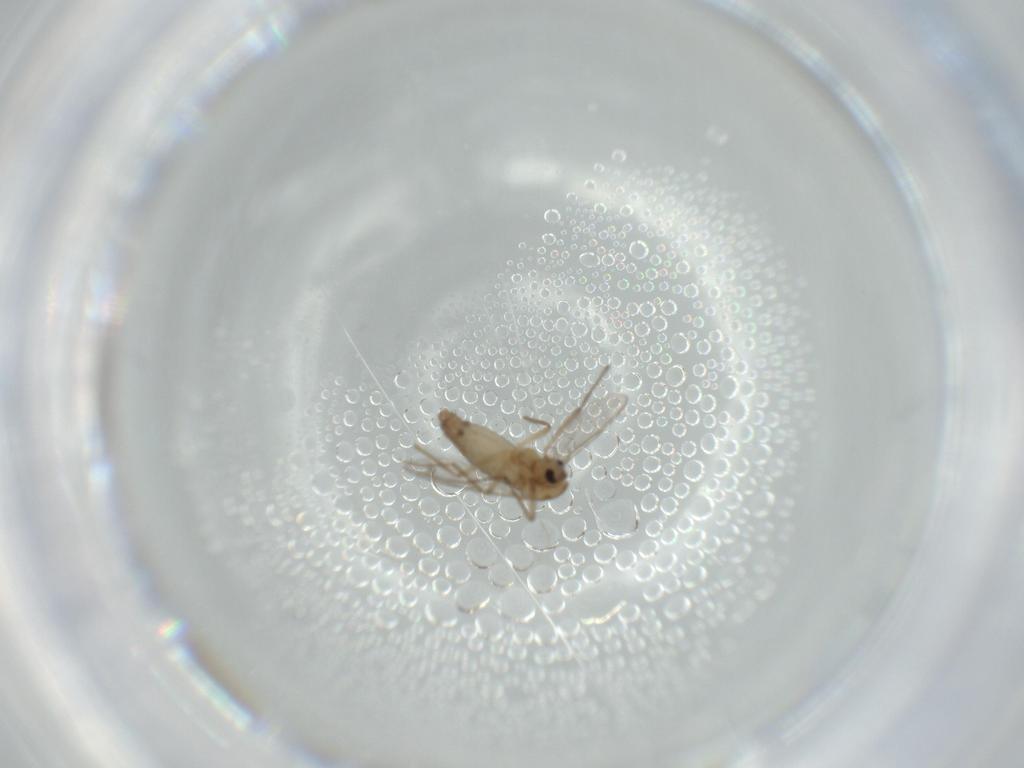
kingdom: Animalia
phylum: Arthropoda
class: Insecta
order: Diptera
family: Chironomidae
